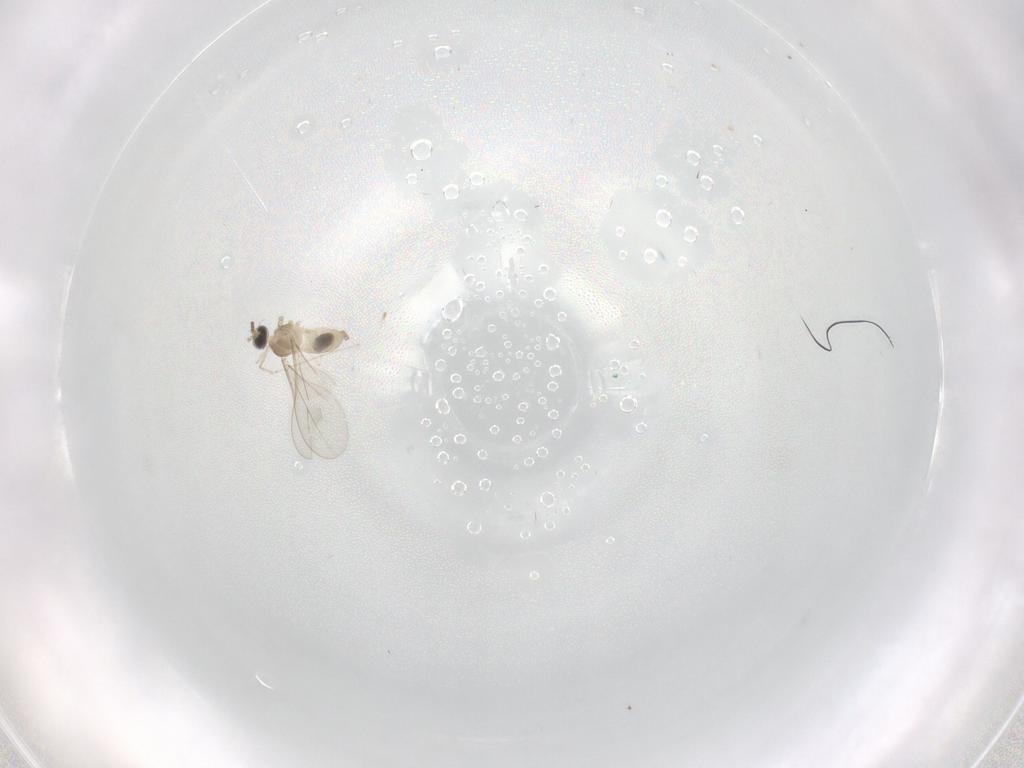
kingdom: Animalia
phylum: Arthropoda
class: Insecta
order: Diptera
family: Cecidomyiidae
